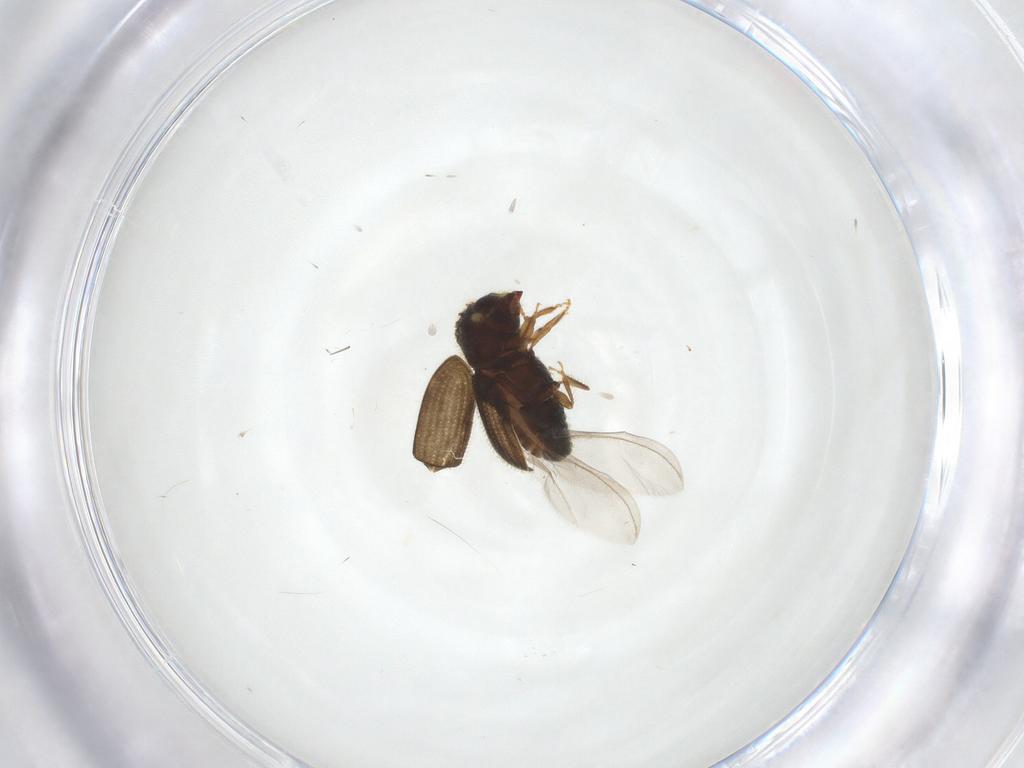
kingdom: Animalia
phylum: Arthropoda
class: Insecta
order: Coleoptera
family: Curculionidae
